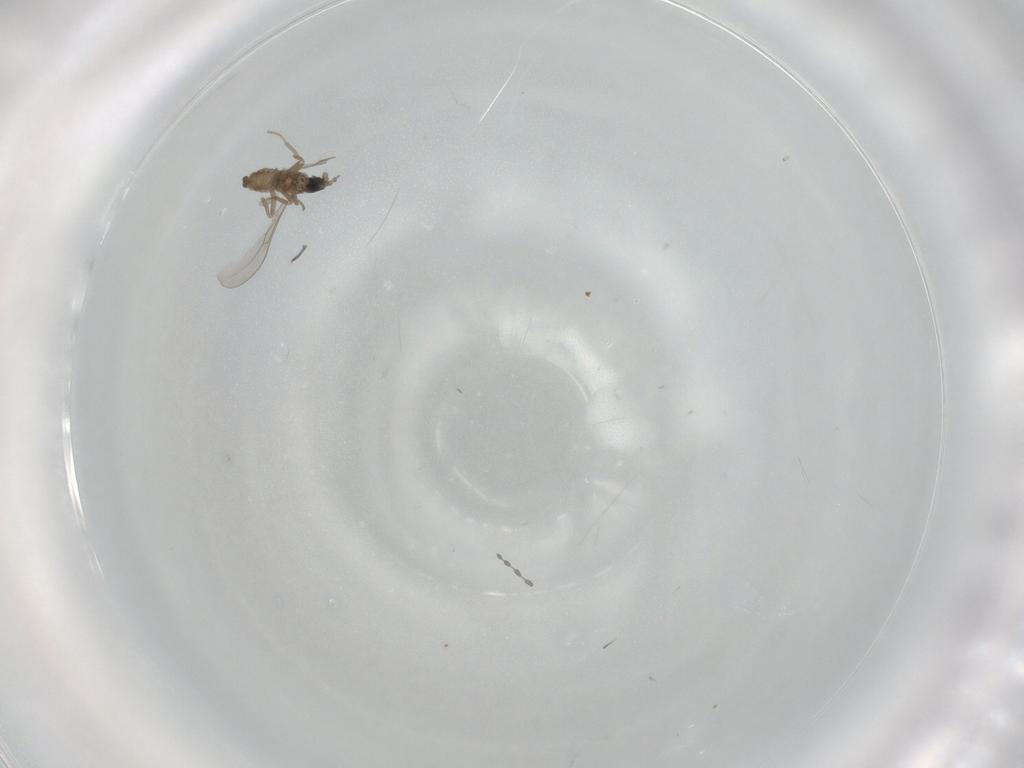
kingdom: Animalia
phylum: Arthropoda
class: Insecta
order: Diptera
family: Cecidomyiidae
